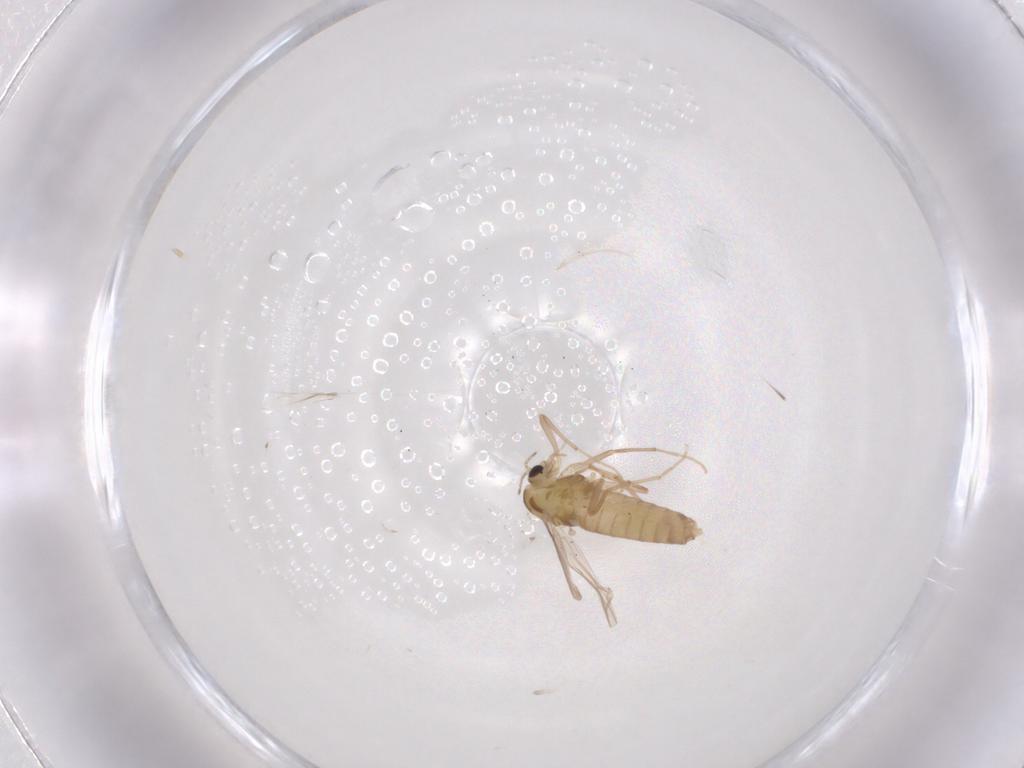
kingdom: Animalia
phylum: Arthropoda
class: Insecta
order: Diptera
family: Chironomidae
